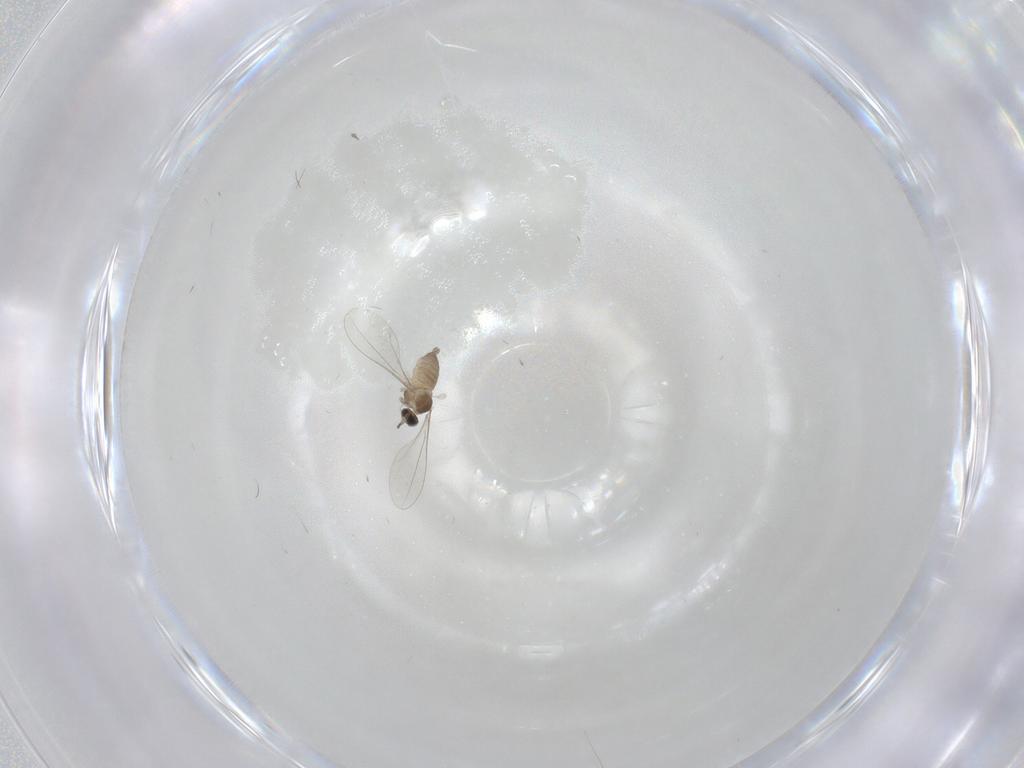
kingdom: Animalia
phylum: Arthropoda
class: Insecta
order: Diptera
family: Cecidomyiidae
